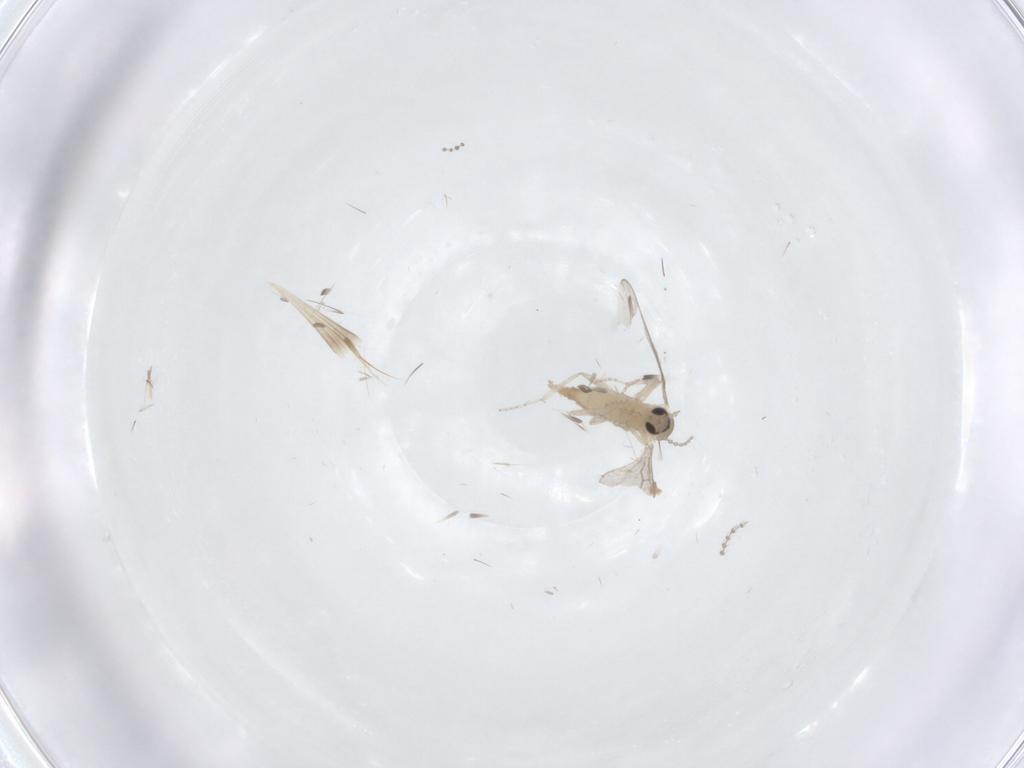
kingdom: Animalia
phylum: Arthropoda
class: Insecta
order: Diptera
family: Cecidomyiidae
